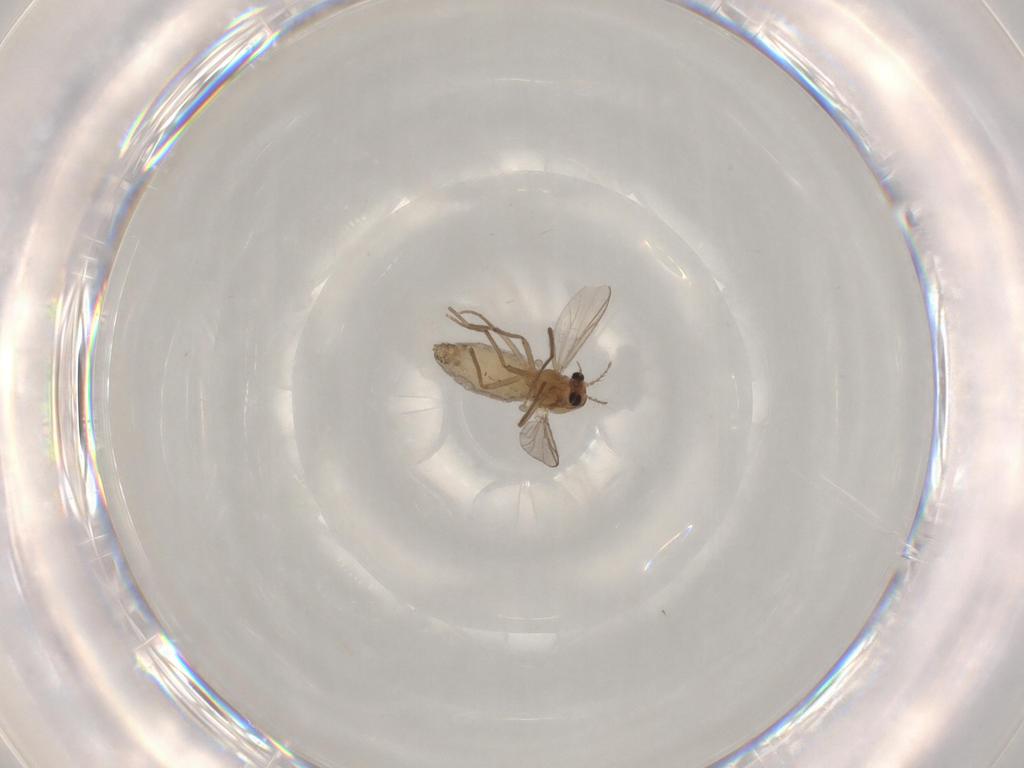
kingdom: Animalia
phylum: Arthropoda
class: Insecta
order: Diptera
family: Chironomidae
